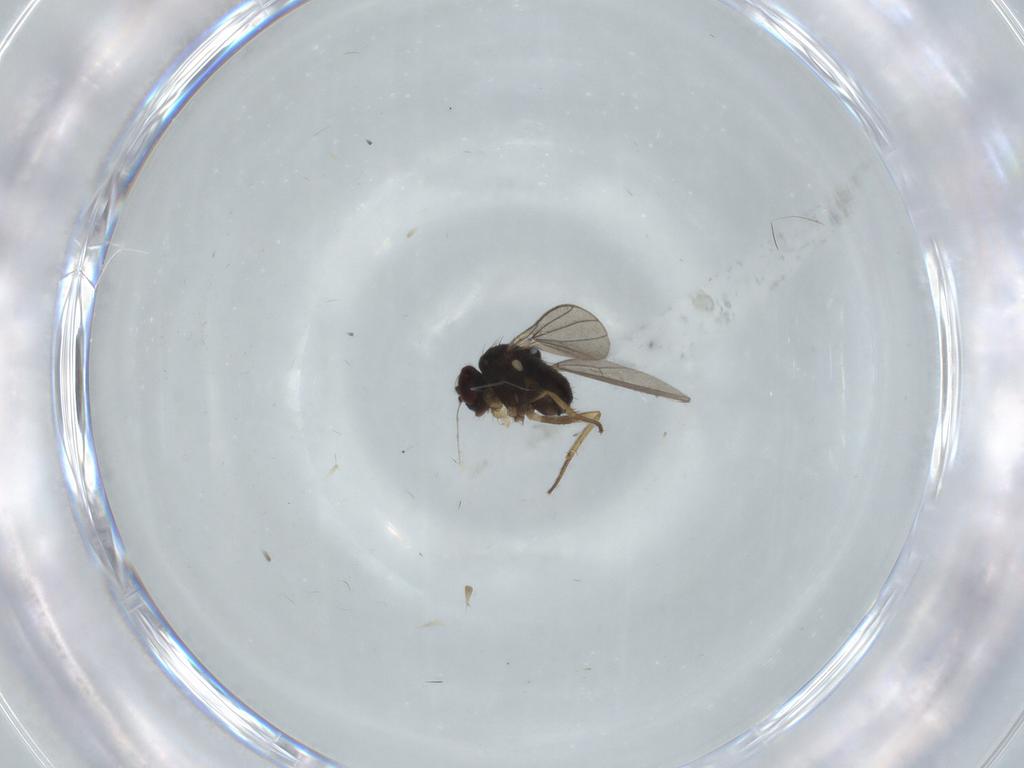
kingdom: Animalia
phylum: Arthropoda
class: Insecta
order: Diptera
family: Dolichopodidae
